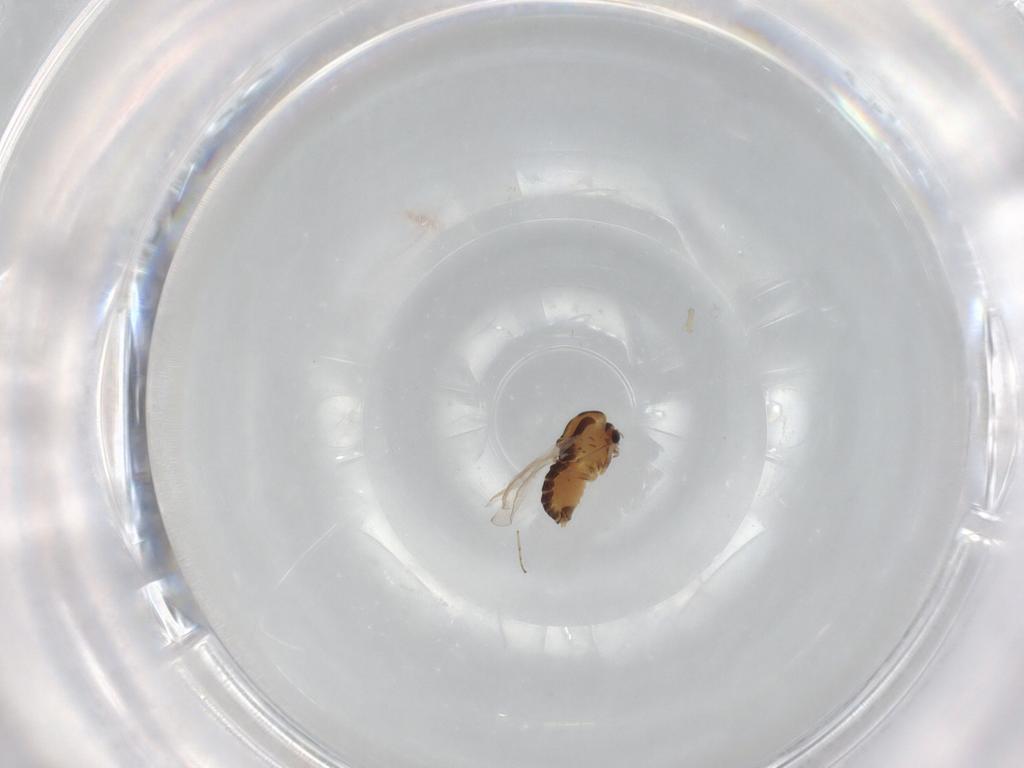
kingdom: Animalia
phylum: Arthropoda
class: Insecta
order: Diptera
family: Chironomidae
